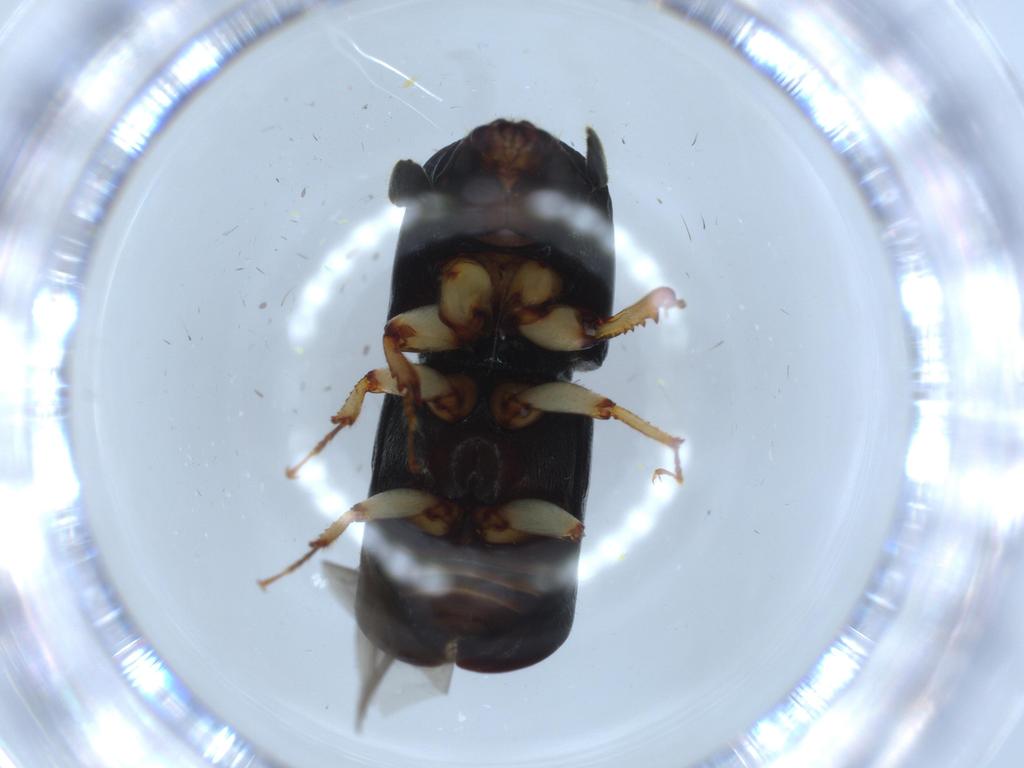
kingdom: Animalia
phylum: Arthropoda
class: Insecta
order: Coleoptera
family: Curculionidae
